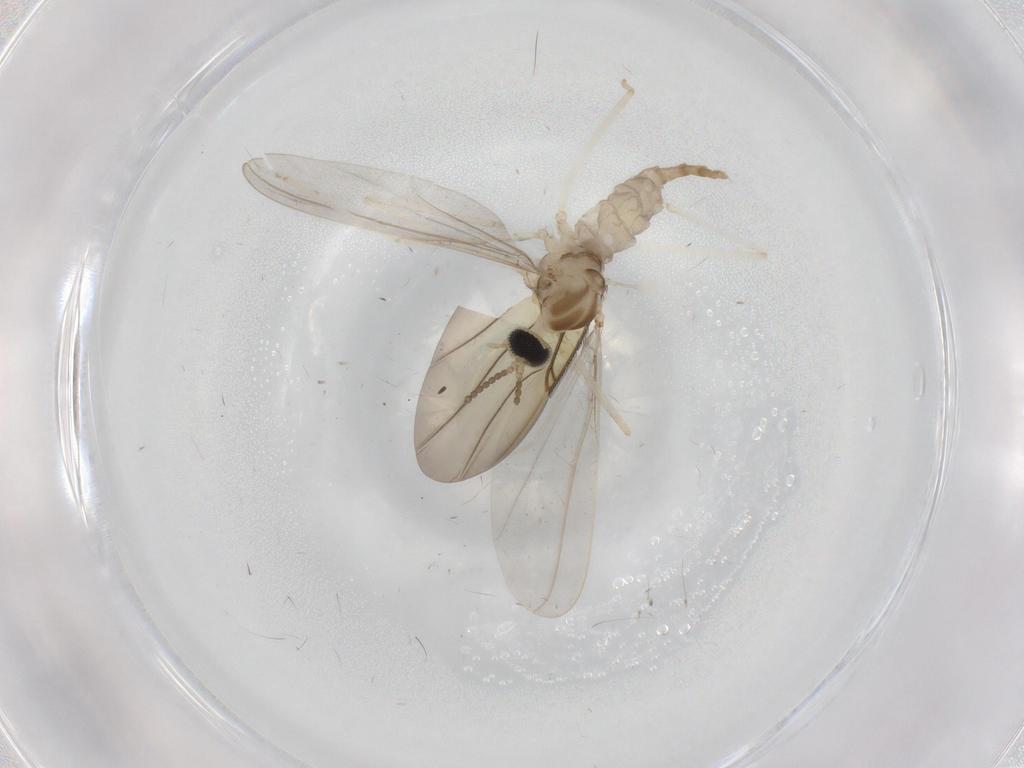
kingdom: Animalia
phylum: Arthropoda
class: Insecta
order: Diptera
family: Cecidomyiidae
